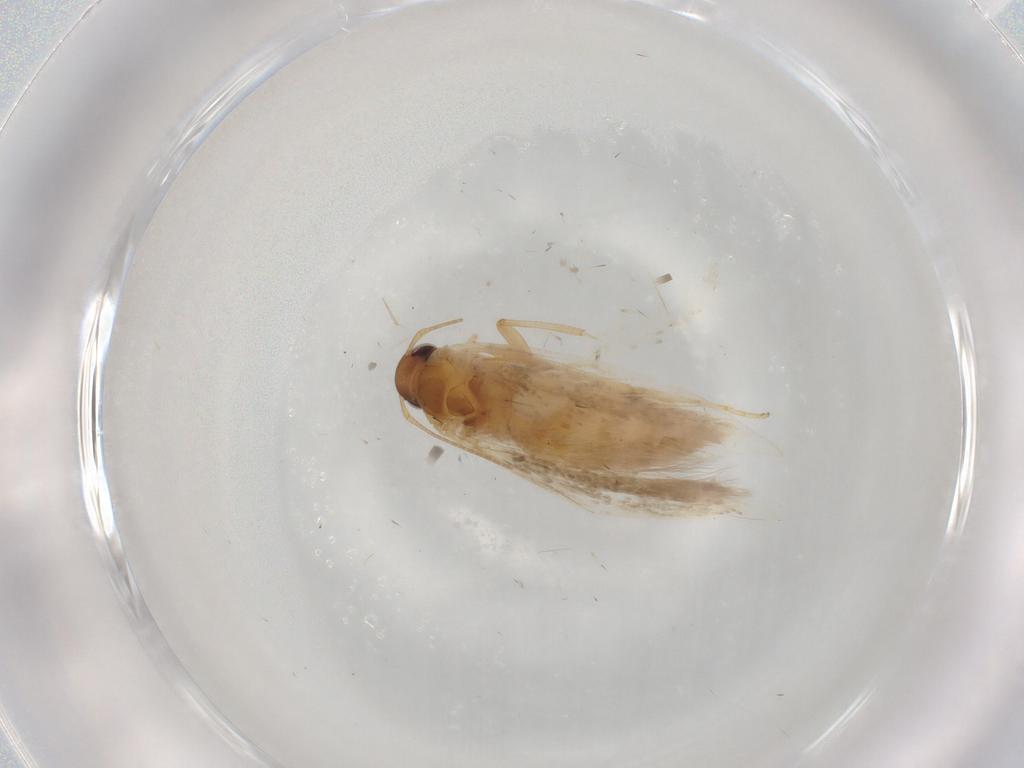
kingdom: Animalia
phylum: Arthropoda
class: Insecta
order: Lepidoptera
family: Gelechiidae
